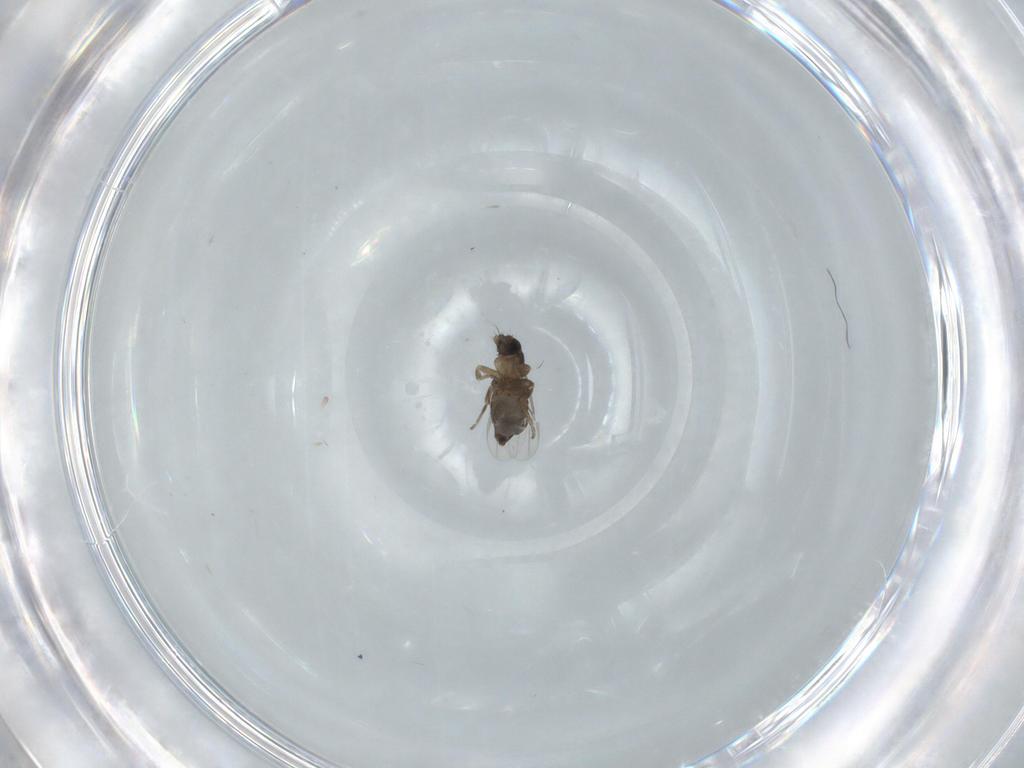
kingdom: Animalia
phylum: Arthropoda
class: Insecta
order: Diptera
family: Phoridae
